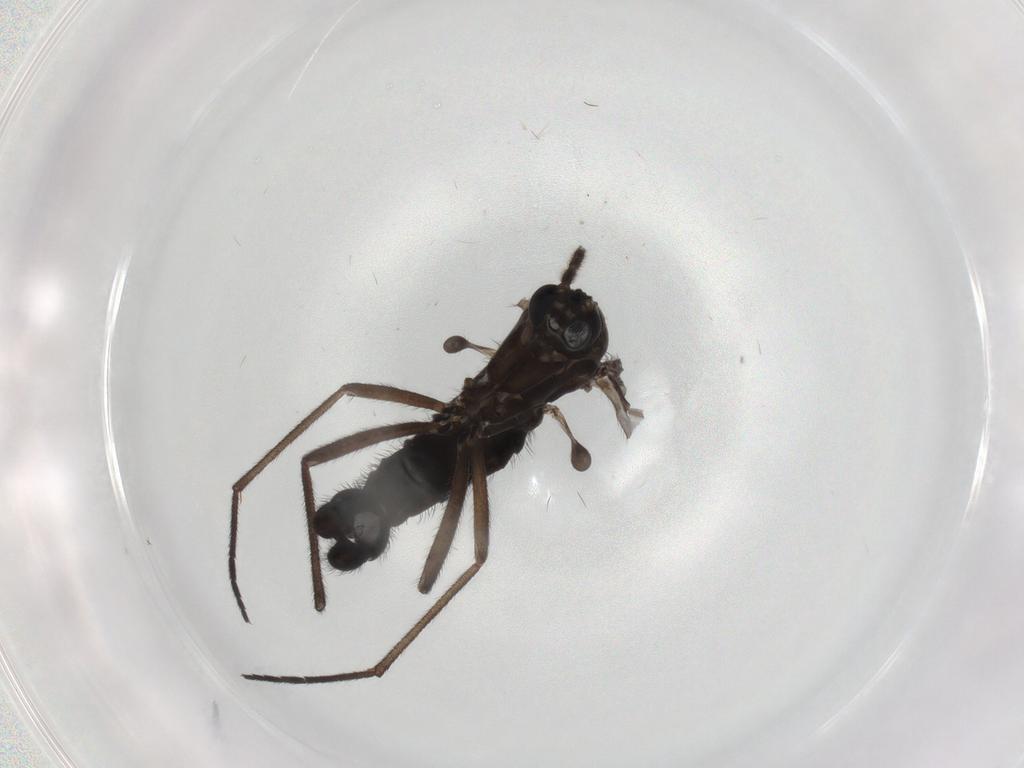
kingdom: Animalia
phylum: Arthropoda
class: Insecta
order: Diptera
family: Sciaridae
